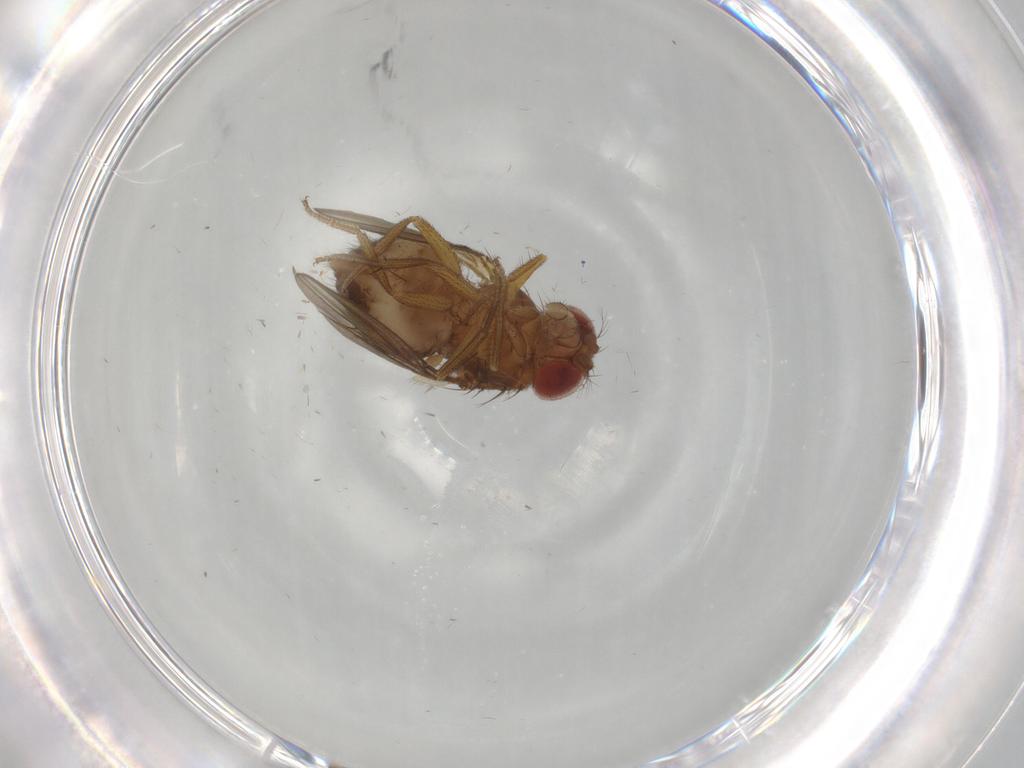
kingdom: Animalia
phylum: Arthropoda
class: Insecta
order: Diptera
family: Drosophilidae
